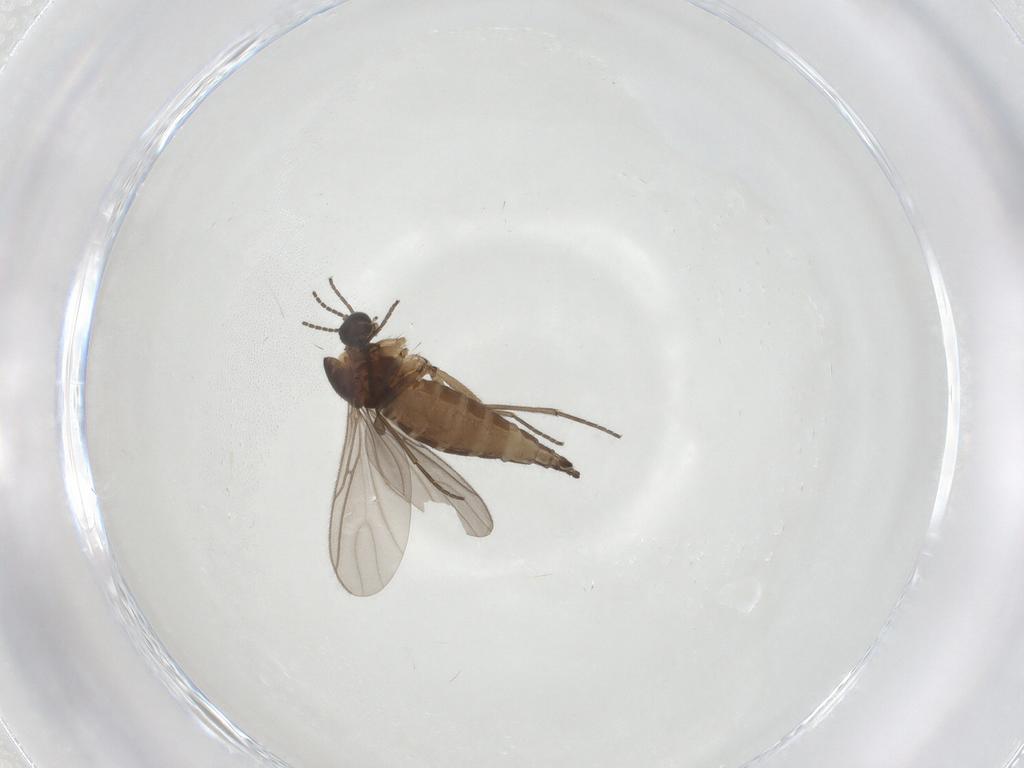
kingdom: Animalia
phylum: Arthropoda
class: Insecta
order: Diptera
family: Sciaridae
